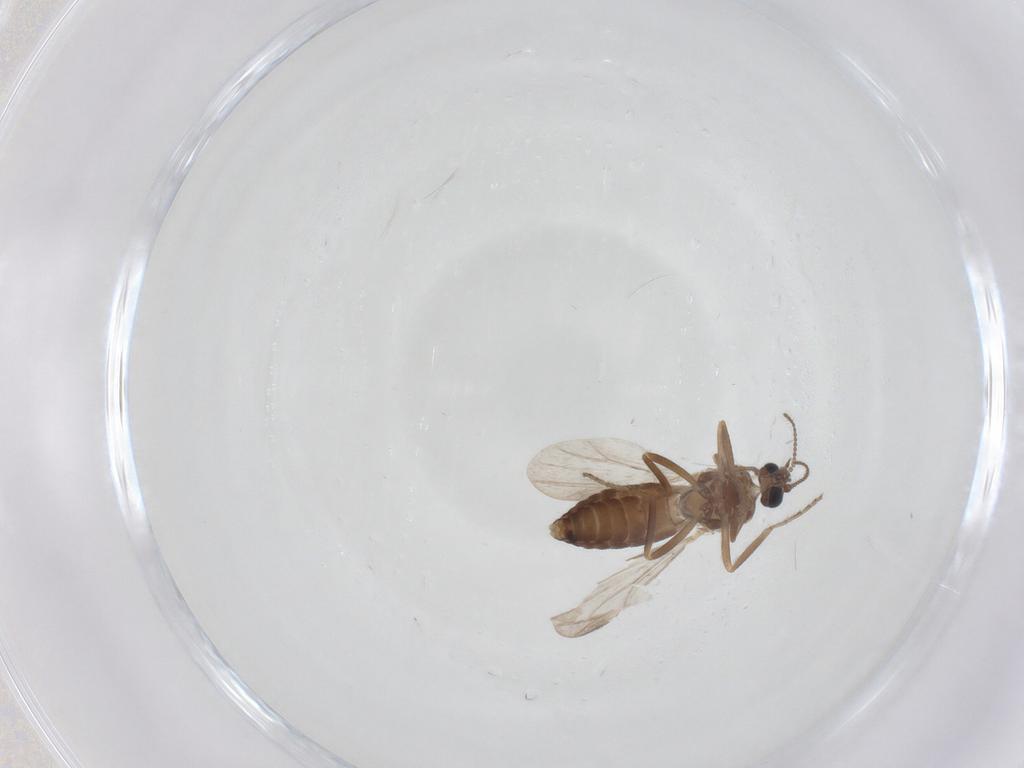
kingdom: Animalia
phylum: Arthropoda
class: Insecta
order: Diptera
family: Ceratopogonidae
